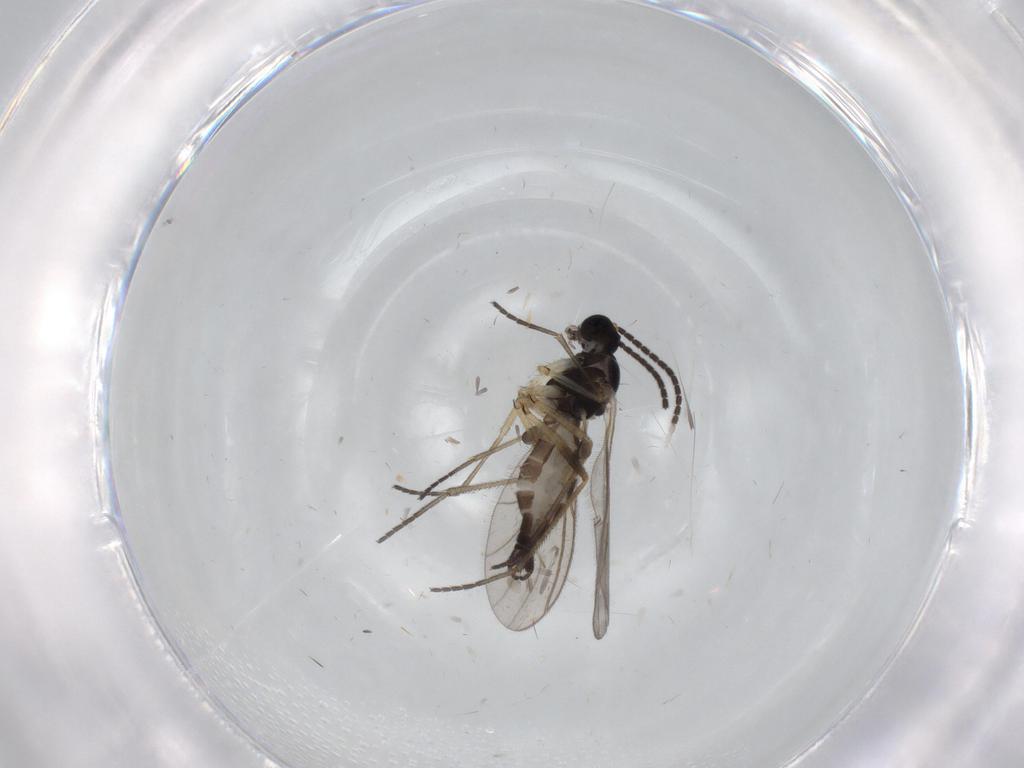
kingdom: Animalia
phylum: Arthropoda
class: Insecta
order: Diptera
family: Sciaridae
